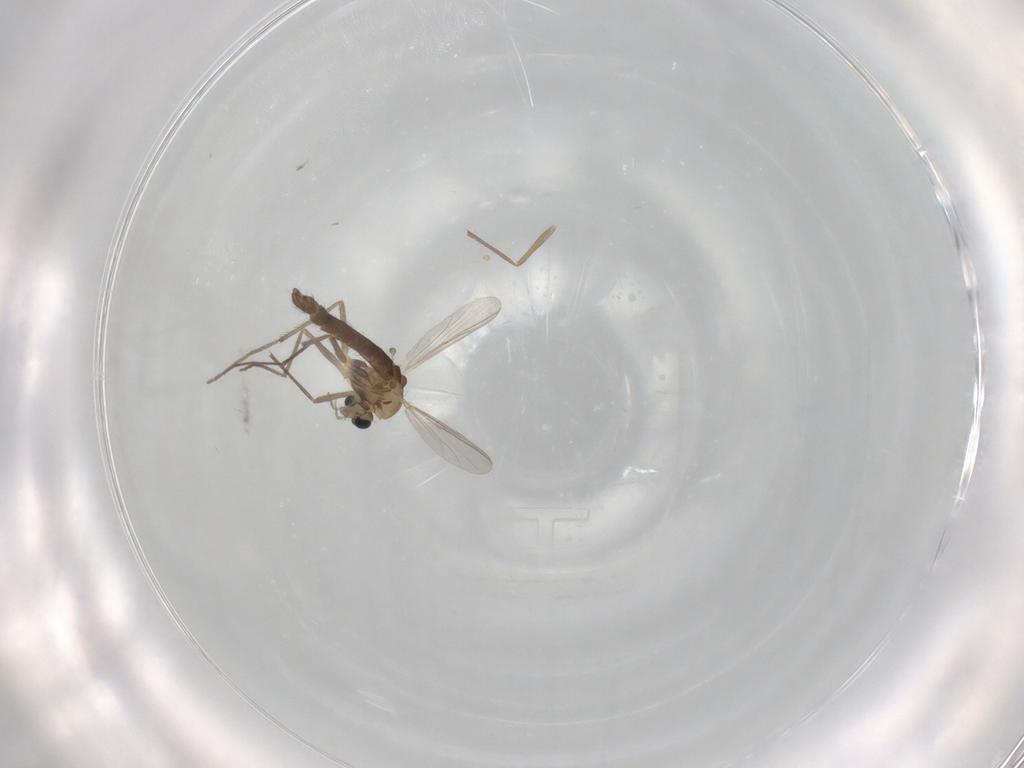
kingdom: Animalia
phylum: Arthropoda
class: Insecta
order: Diptera
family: Chironomidae
